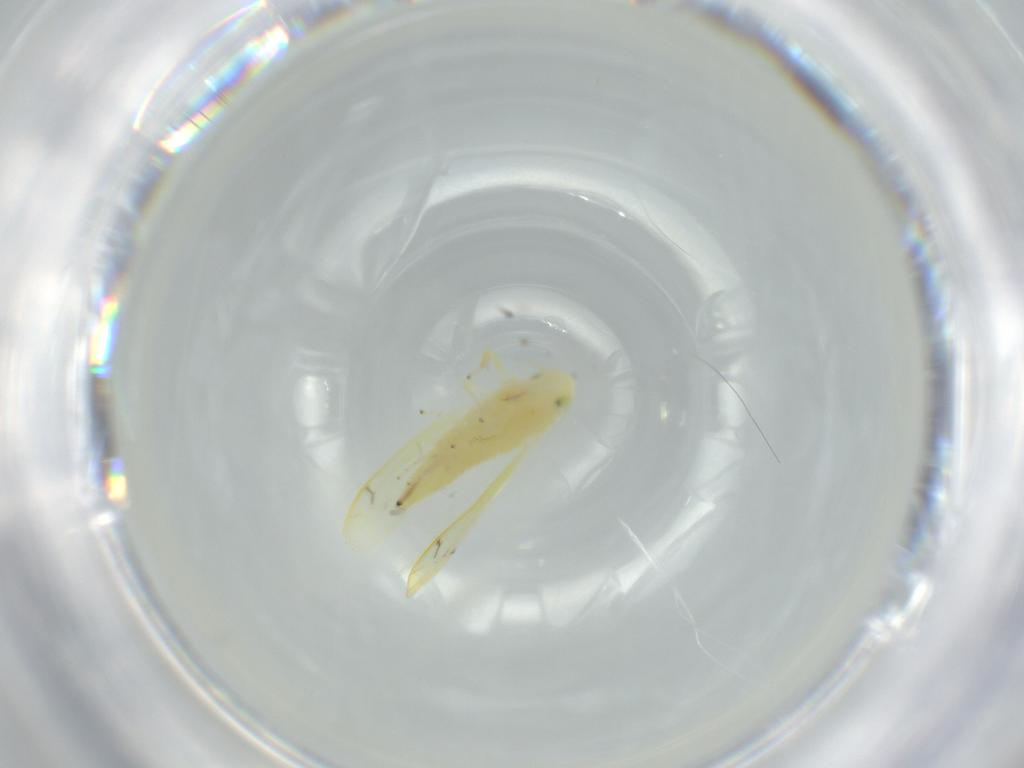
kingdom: Animalia
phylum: Arthropoda
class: Insecta
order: Hemiptera
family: Cicadellidae
